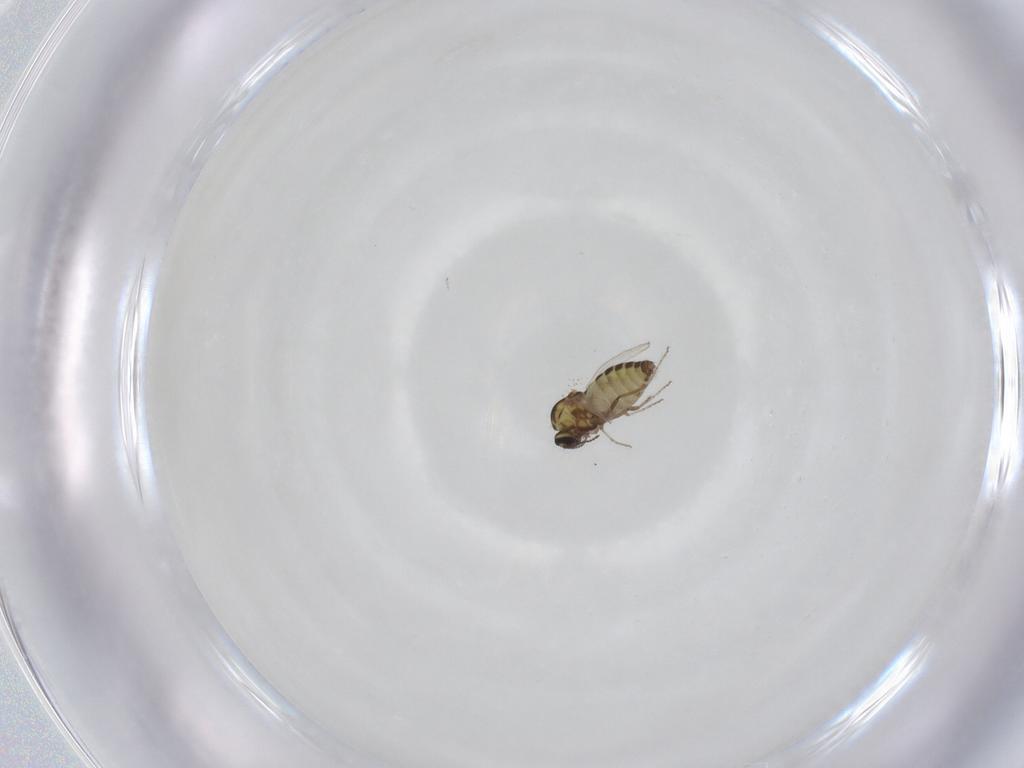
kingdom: Animalia
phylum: Arthropoda
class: Insecta
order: Diptera
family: Ceratopogonidae
